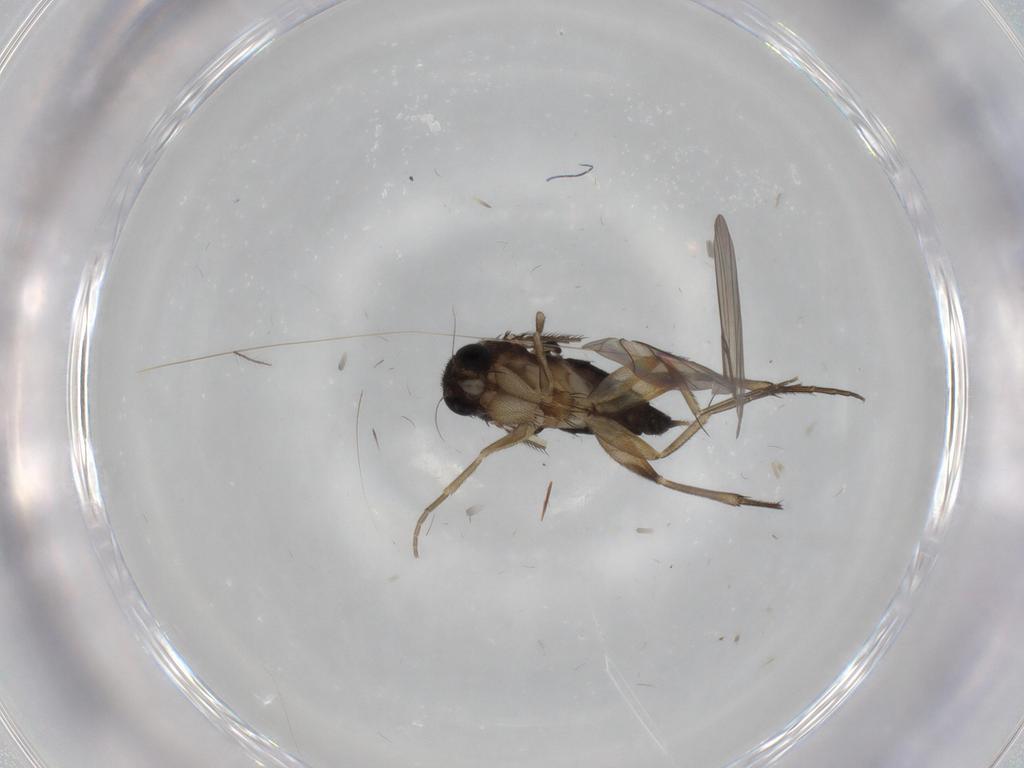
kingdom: Animalia
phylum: Arthropoda
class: Insecta
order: Diptera
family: Phoridae
